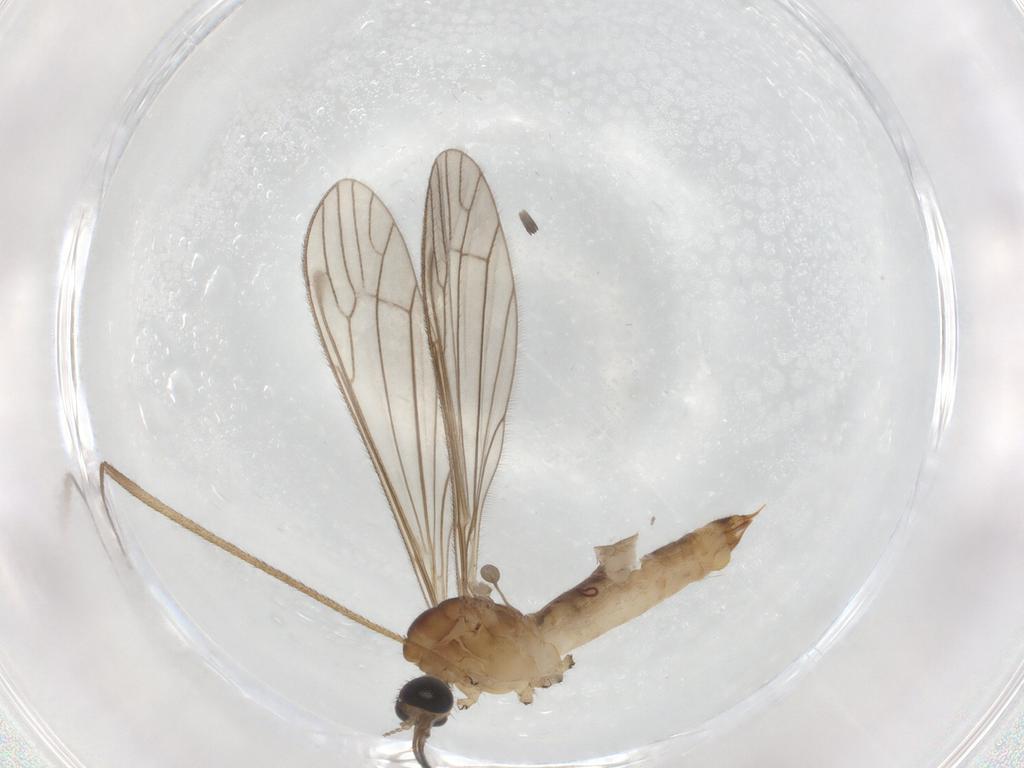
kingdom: Animalia
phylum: Arthropoda
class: Insecta
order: Diptera
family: Limoniidae
